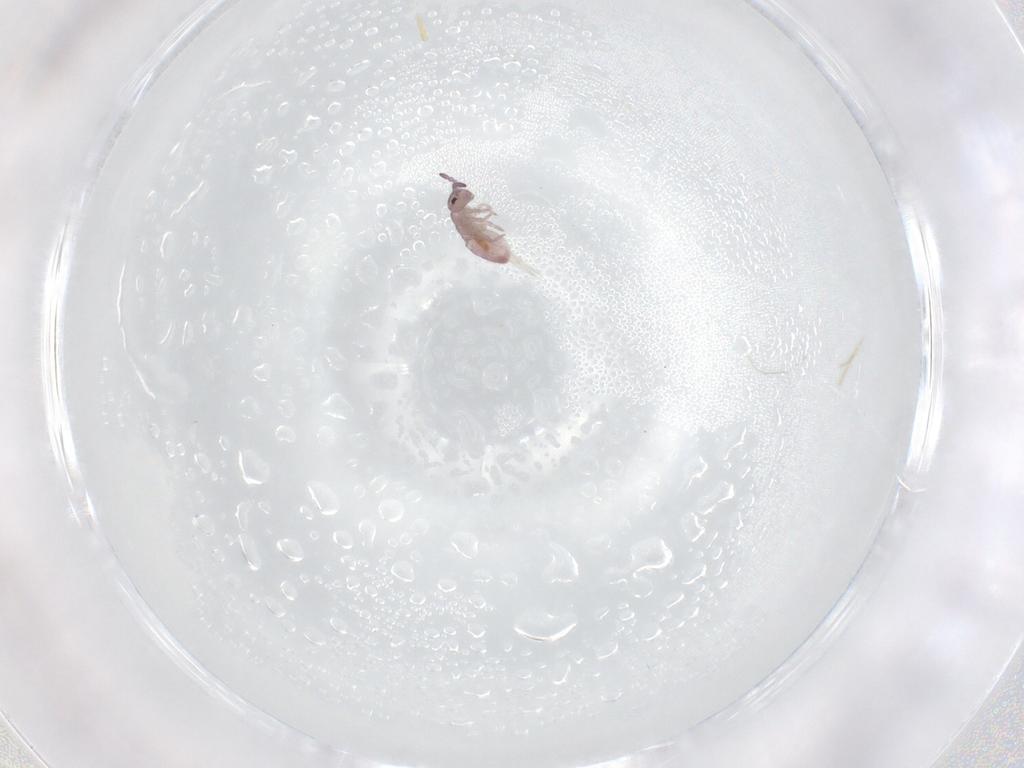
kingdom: Animalia
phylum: Arthropoda
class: Collembola
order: Entomobryomorpha
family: Isotomidae
